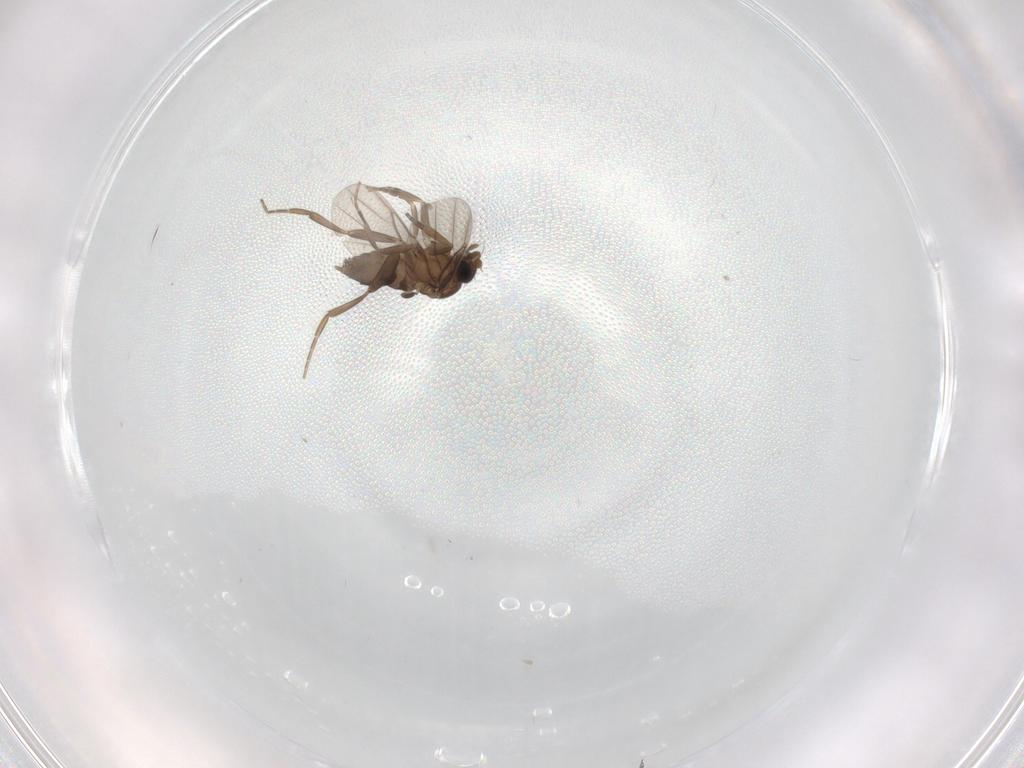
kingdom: Animalia
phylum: Arthropoda
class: Insecta
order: Diptera
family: Phoridae
